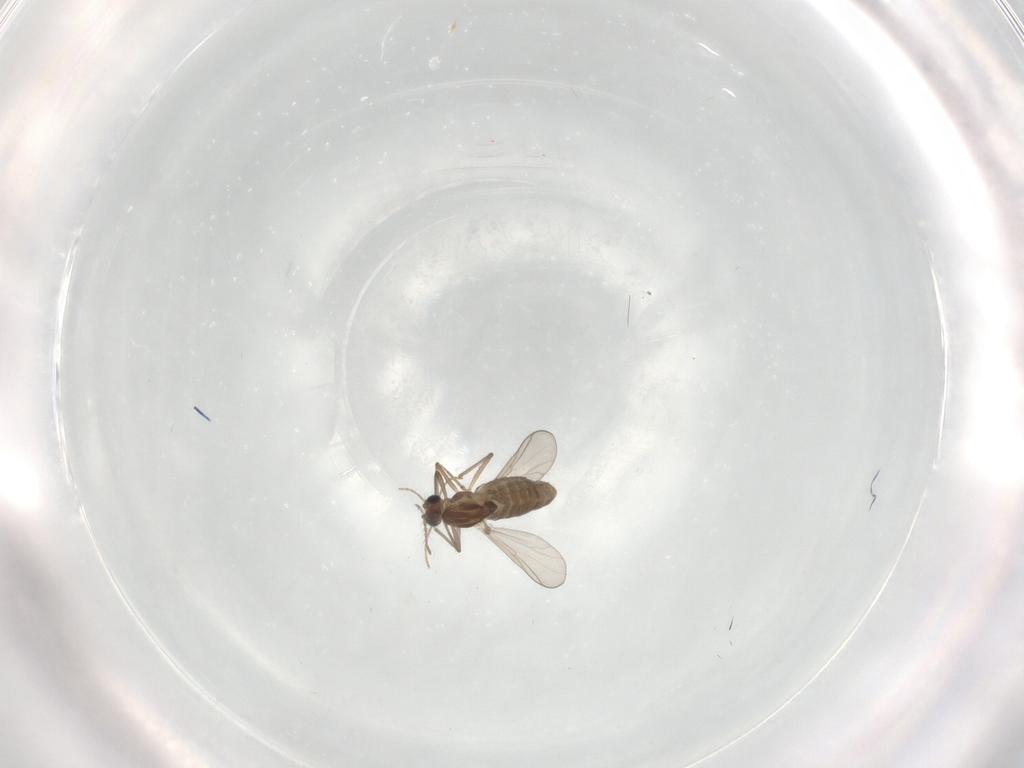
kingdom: Animalia
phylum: Arthropoda
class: Insecta
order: Diptera
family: Chironomidae
